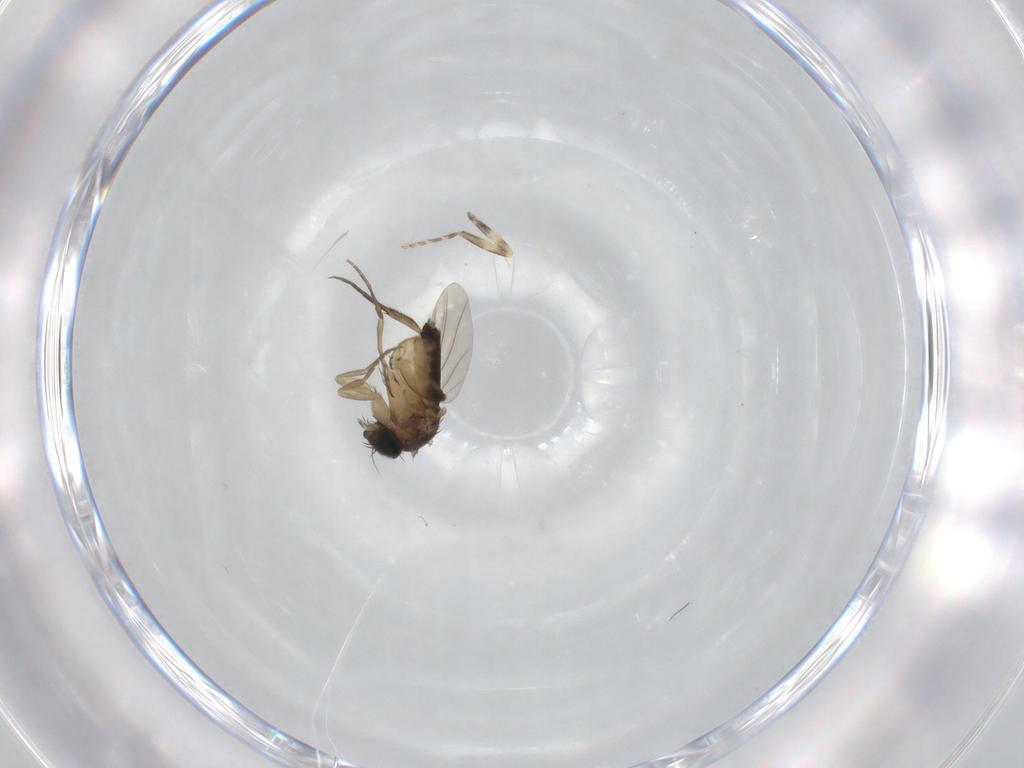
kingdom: Animalia
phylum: Arthropoda
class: Insecta
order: Diptera
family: Phoridae
